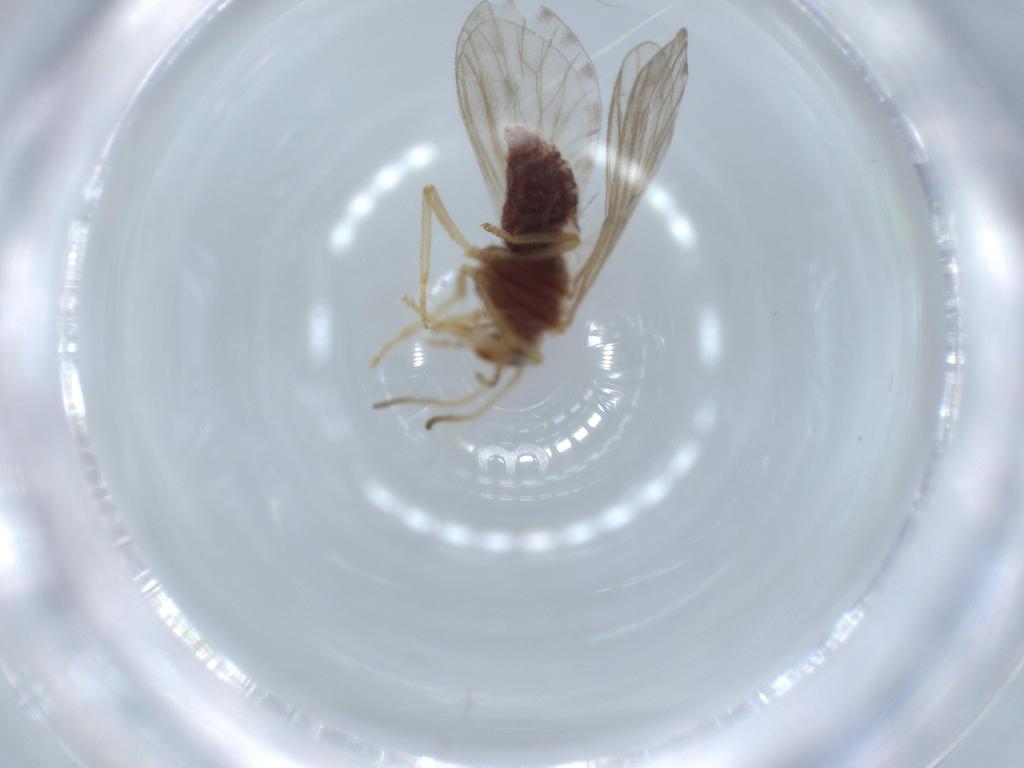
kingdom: Animalia
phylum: Arthropoda
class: Insecta
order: Neuroptera
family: Coniopterygidae
